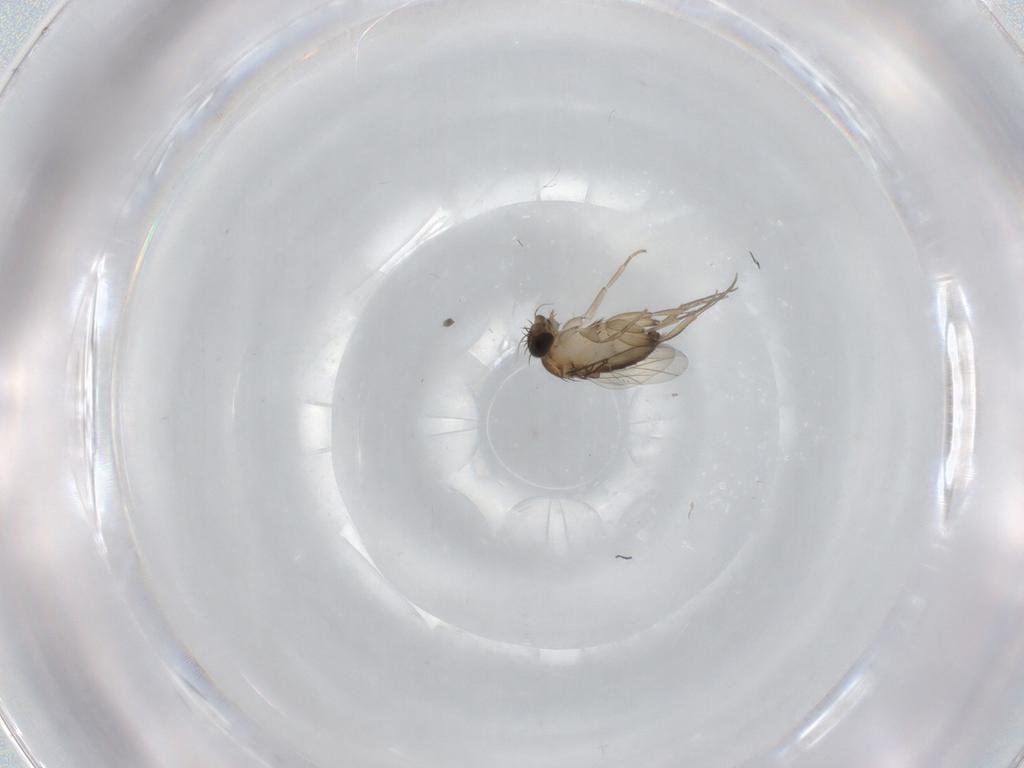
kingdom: Animalia
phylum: Arthropoda
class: Insecta
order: Diptera
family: Phoridae
